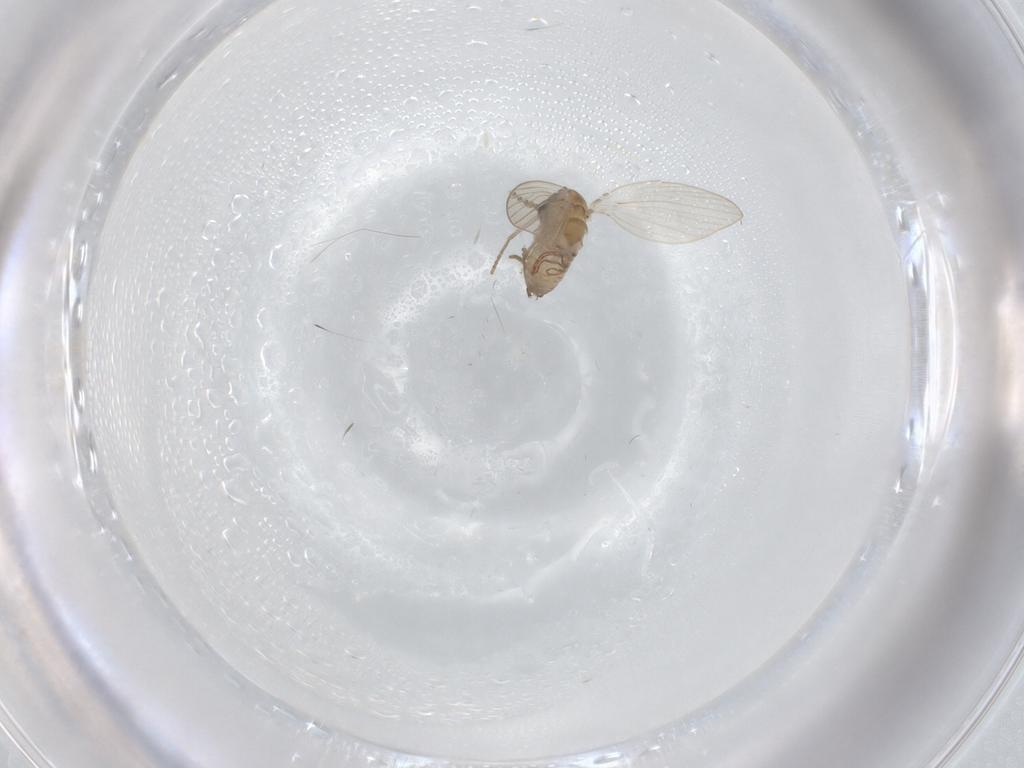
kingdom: Animalia
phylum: Arthropoda
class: Insecta
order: Diptera
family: Psychodidae
